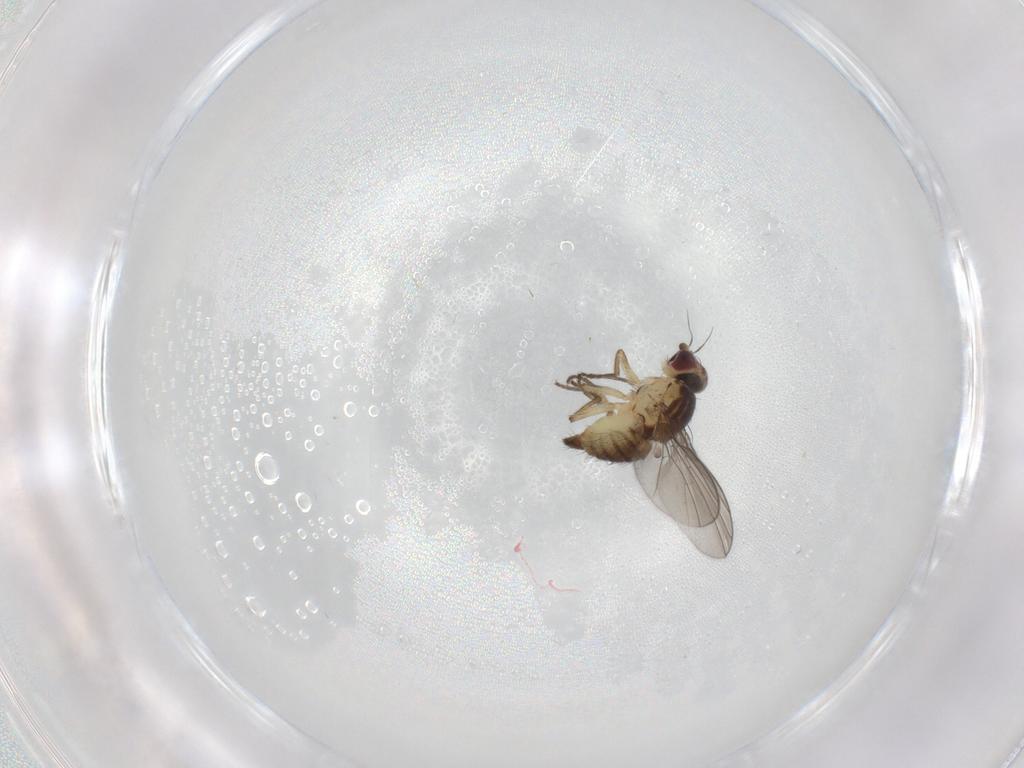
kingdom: Animalia
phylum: Arthropoda
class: Insecta
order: Diptera
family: Agromyzidae
